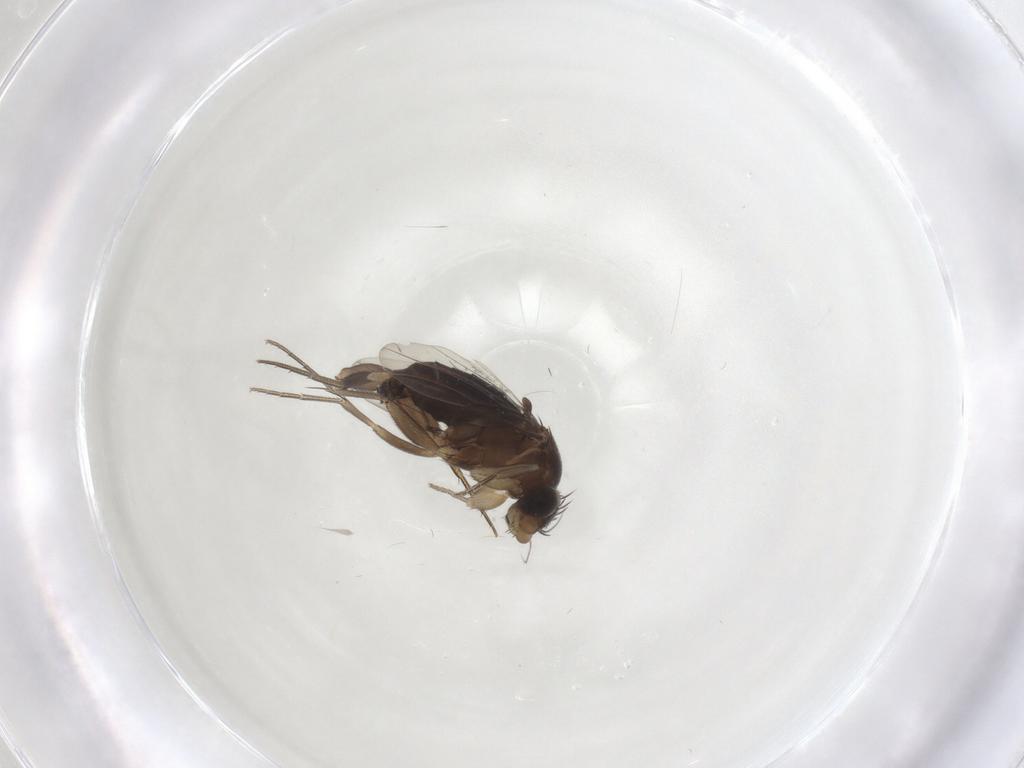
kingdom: Animalia
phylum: Arthropoda
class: Insecta
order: Diptera
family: Phoridae
